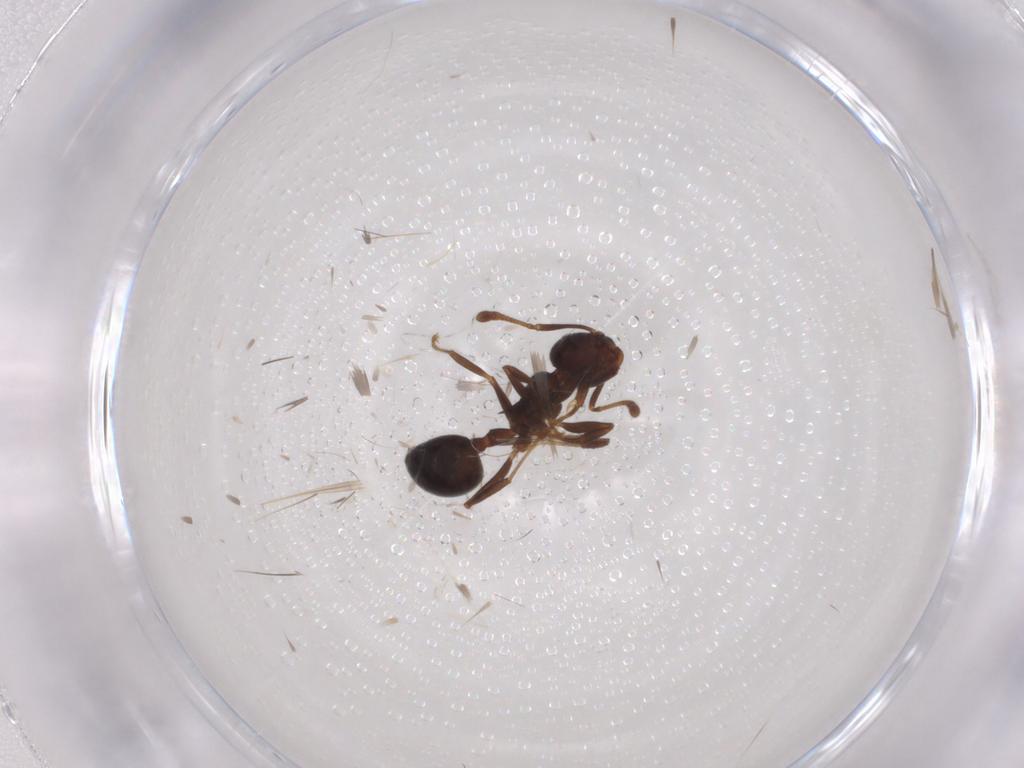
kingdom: Animalia
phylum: Arthropoda
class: Insecta
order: Hymenoptera
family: Formicidae
